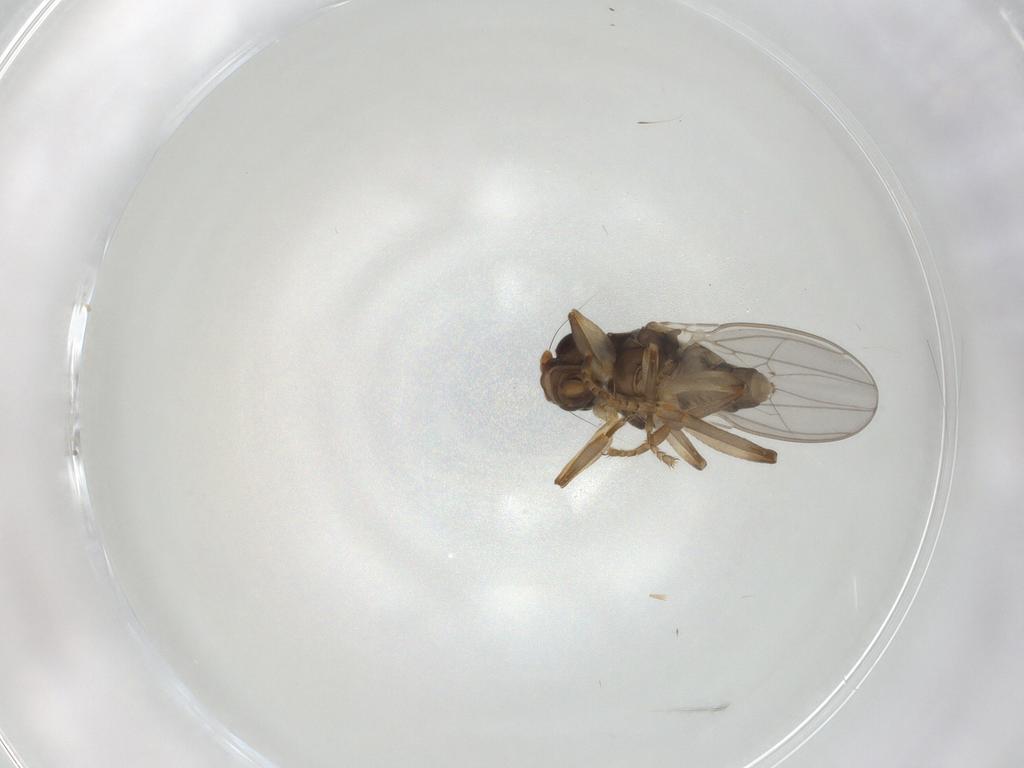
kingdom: Animalia
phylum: Arthropoda
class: Insecta
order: Diptera
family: Cecidomyiidae
